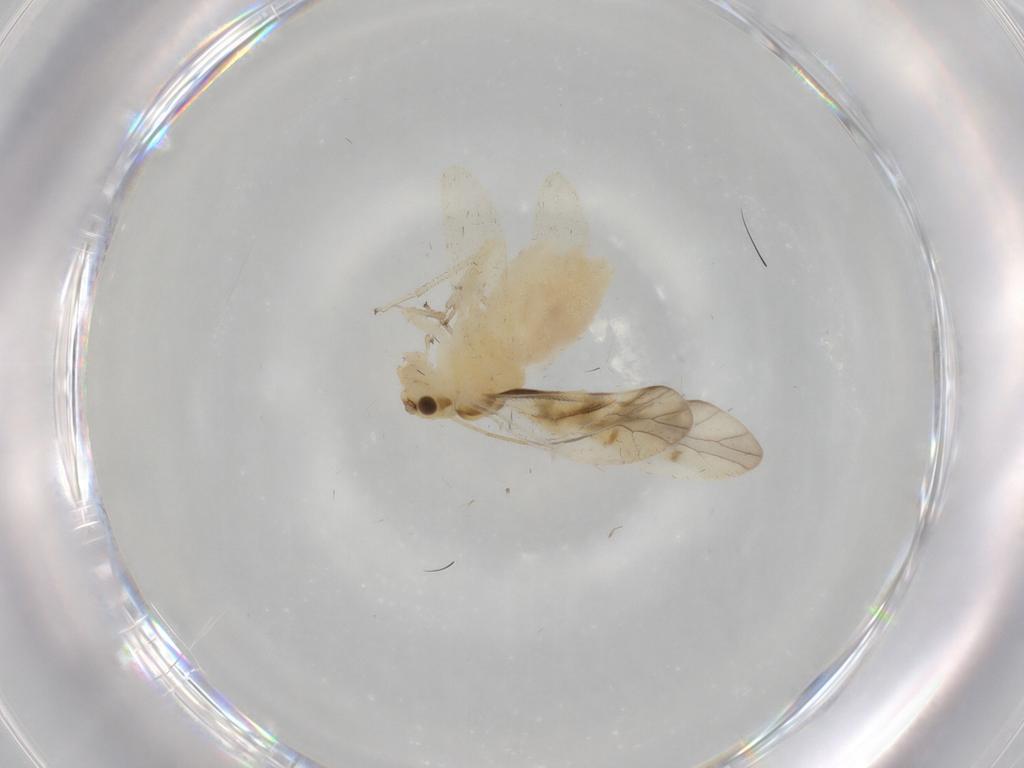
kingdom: Animalia
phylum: Arthropoda
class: Insecta
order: Psocodea
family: Caeciliusidae
